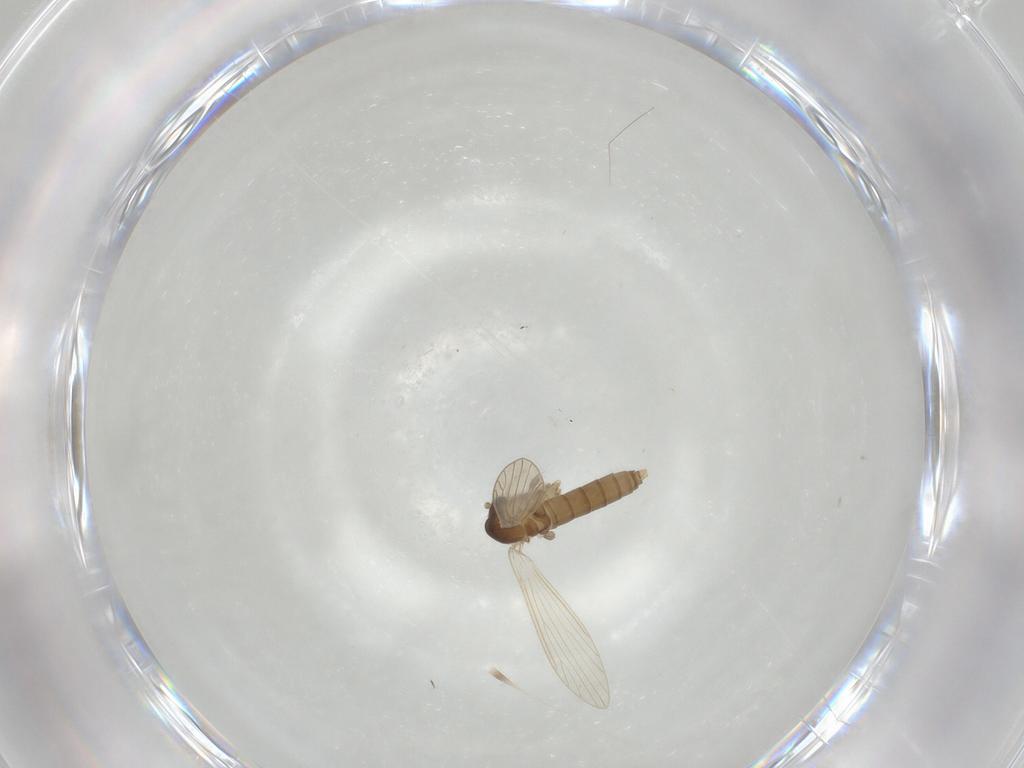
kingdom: Animalia
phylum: Arthropoda
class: Insecta
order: Diptera
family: Psychodidae
